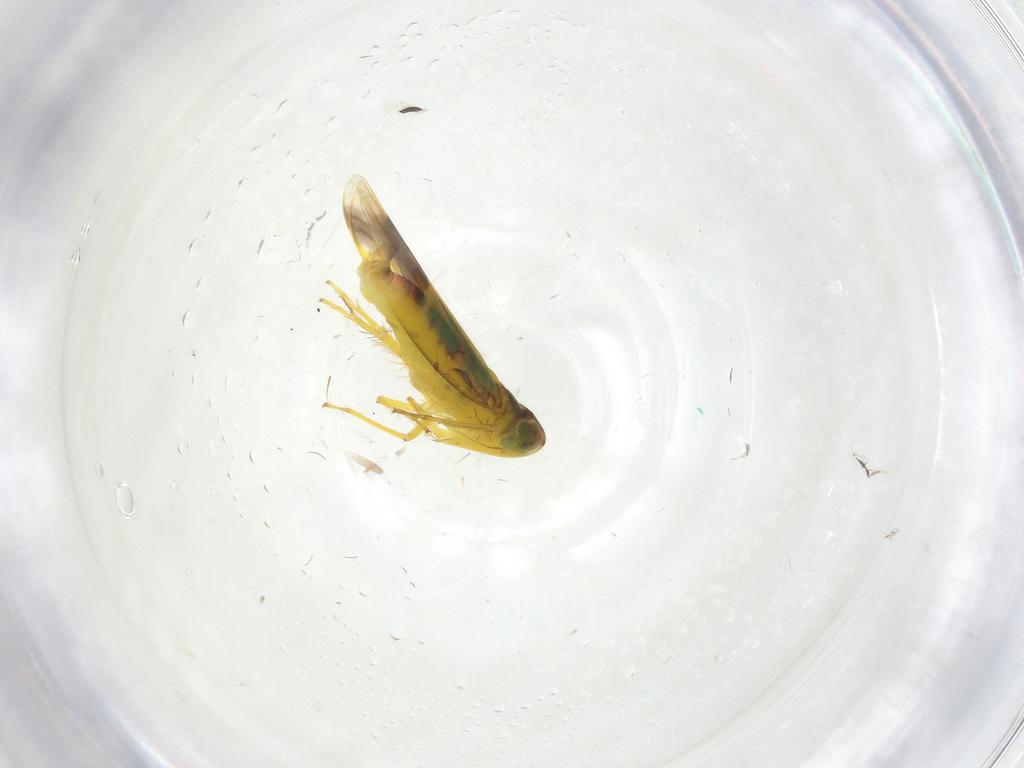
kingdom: Animalia
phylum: Arthropoda
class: Insecta
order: Hemiptera
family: Cicadellidae
